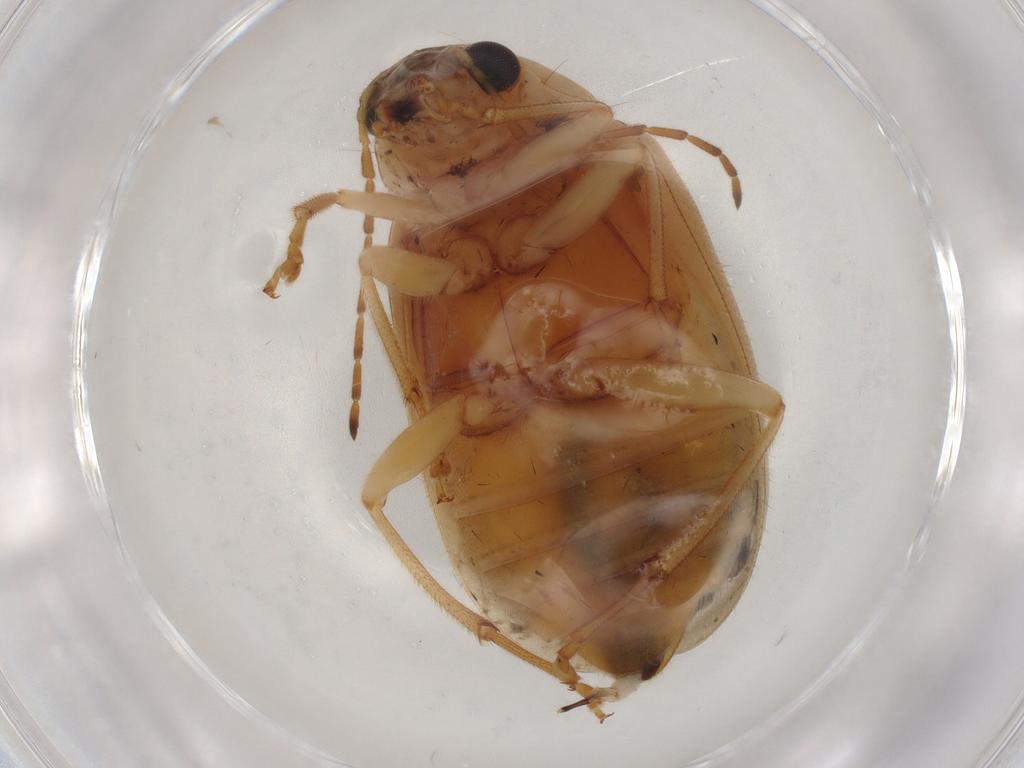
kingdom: Animalia
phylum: Arthropoda
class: Insecta
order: Coleoptera
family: Chrysomelidae
